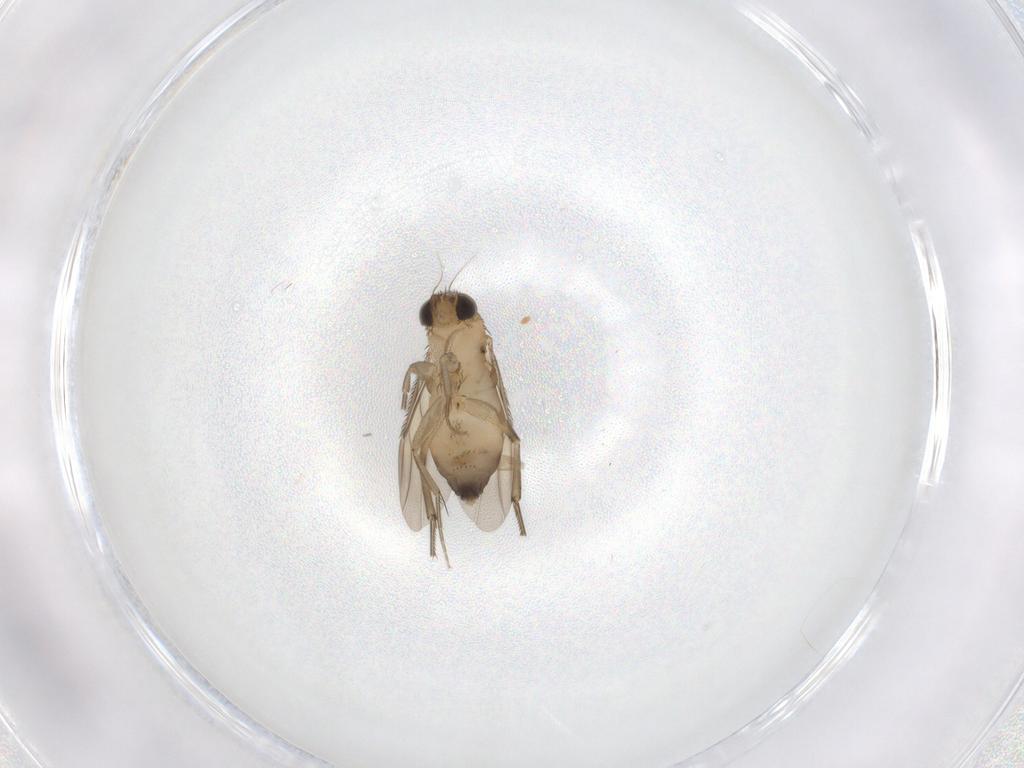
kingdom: Animalia
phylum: Arthropoda
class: Insecta
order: Diptera
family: Phoridae
